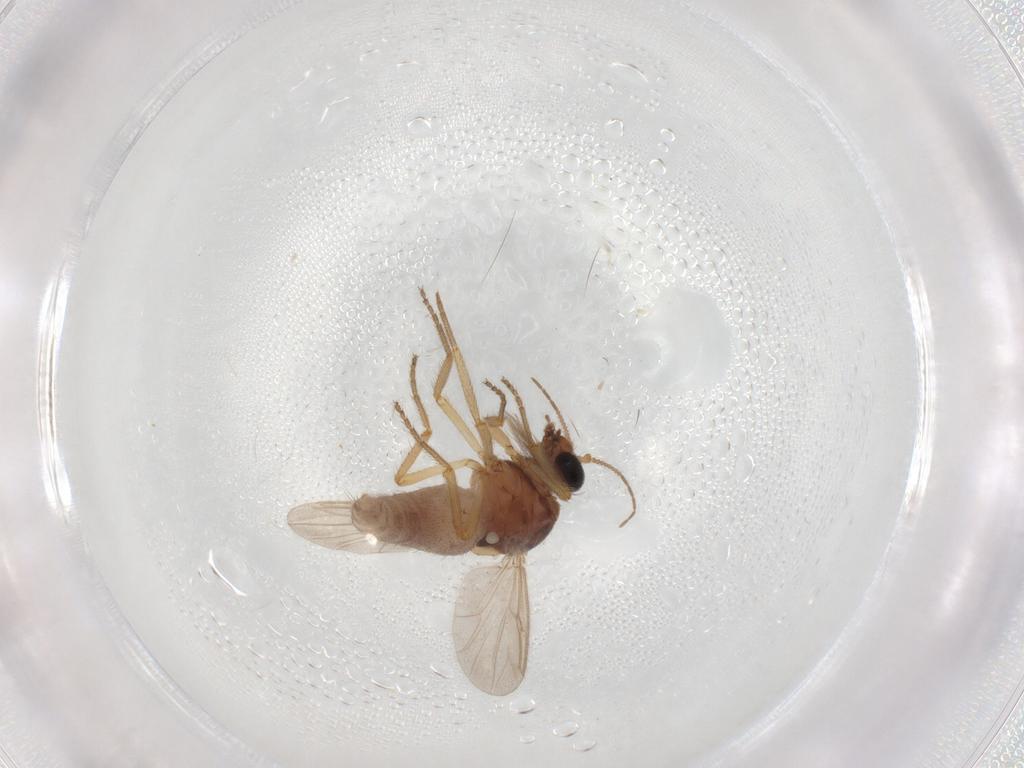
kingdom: Animalia
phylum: Arthropoda
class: Insecta
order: Diptera
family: Ceratopogonidae
